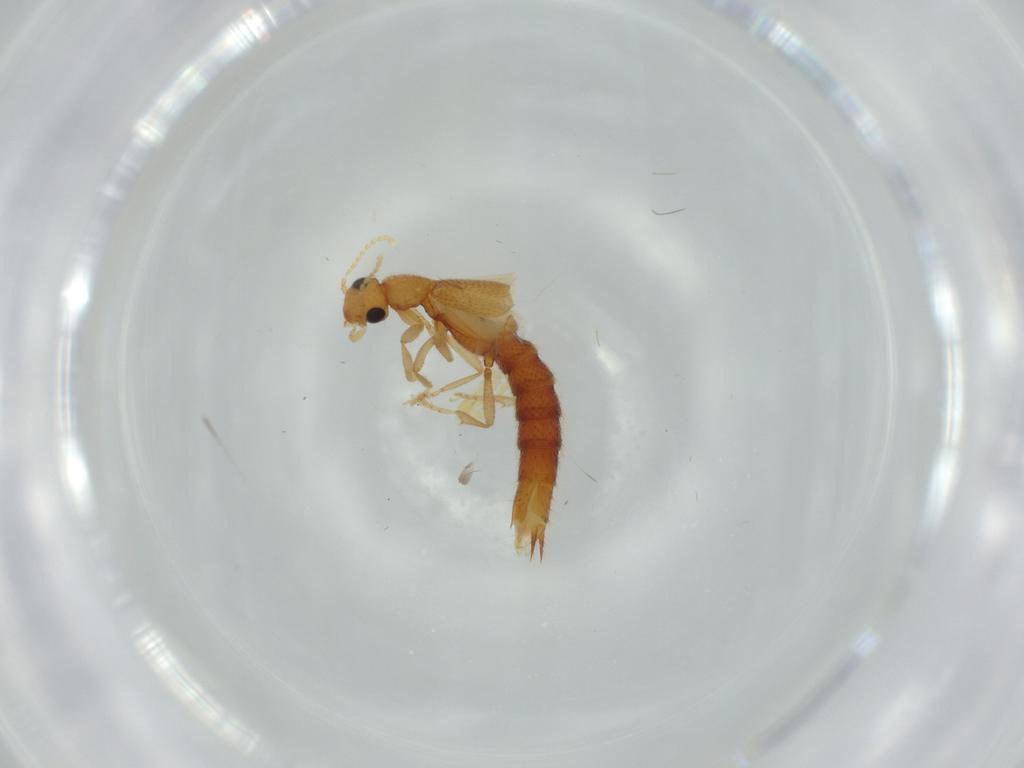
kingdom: Animalia
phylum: Arthropoda
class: Insecta
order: Coleoptera
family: Staphylinidae
